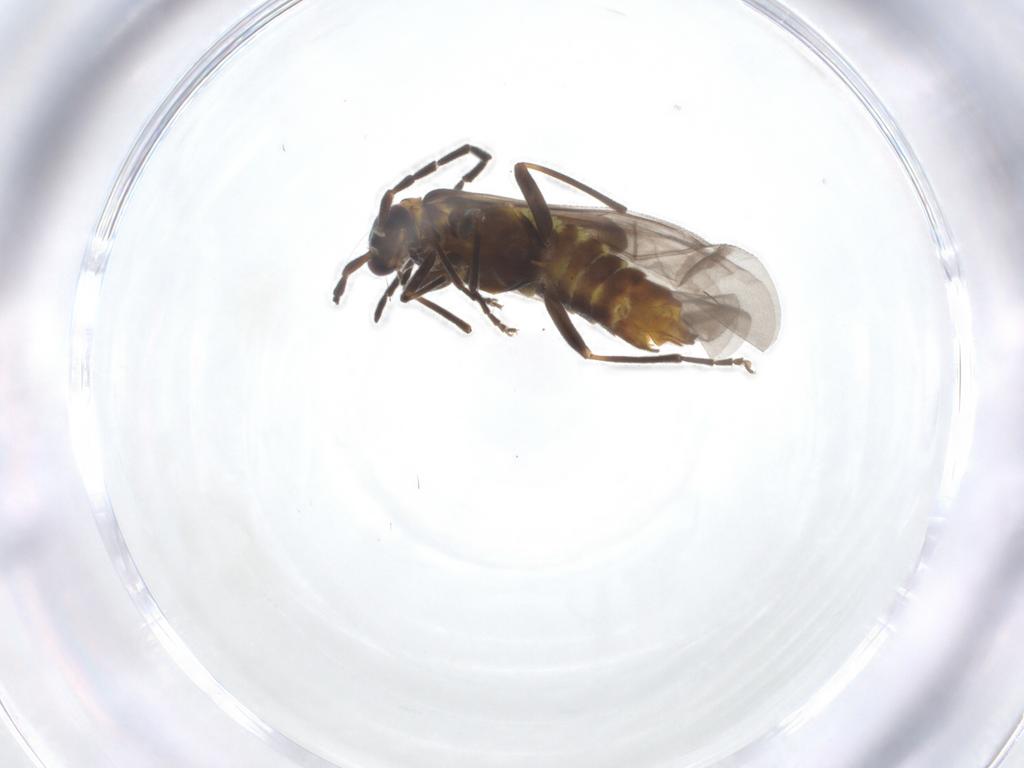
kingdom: Animalia
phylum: Arthropoda
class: Insecta
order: Coleoptera
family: Cantharidae
